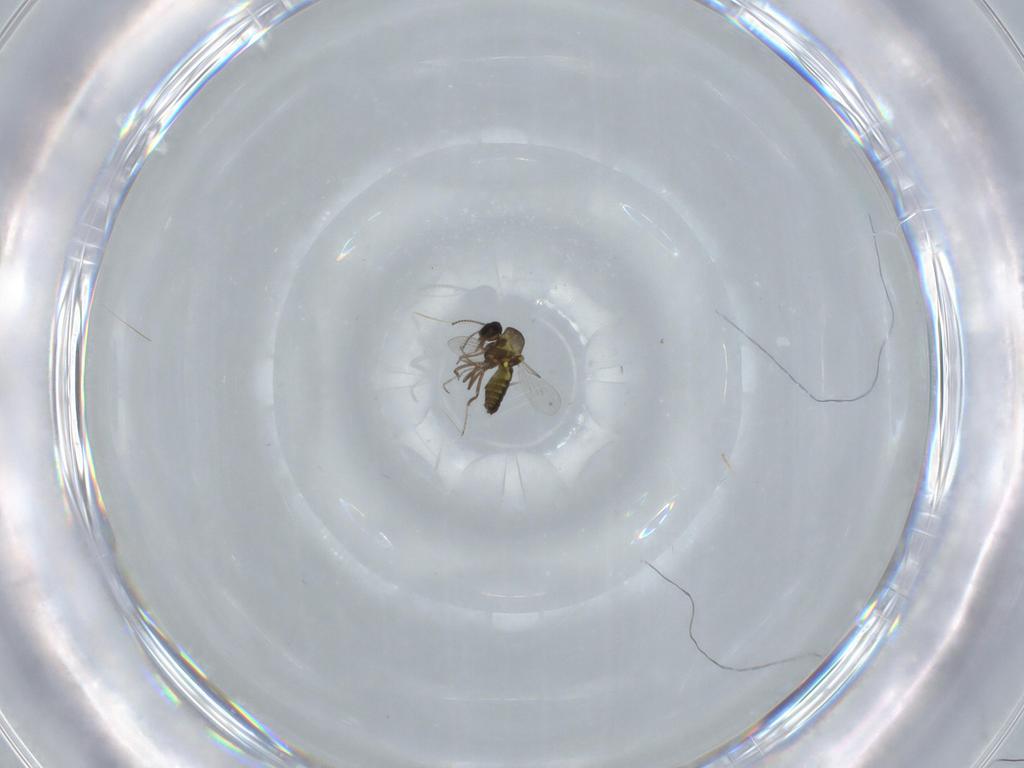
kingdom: Animalia
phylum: Arthropoda
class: Insecta
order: Diptera
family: Ceratopogonidae
